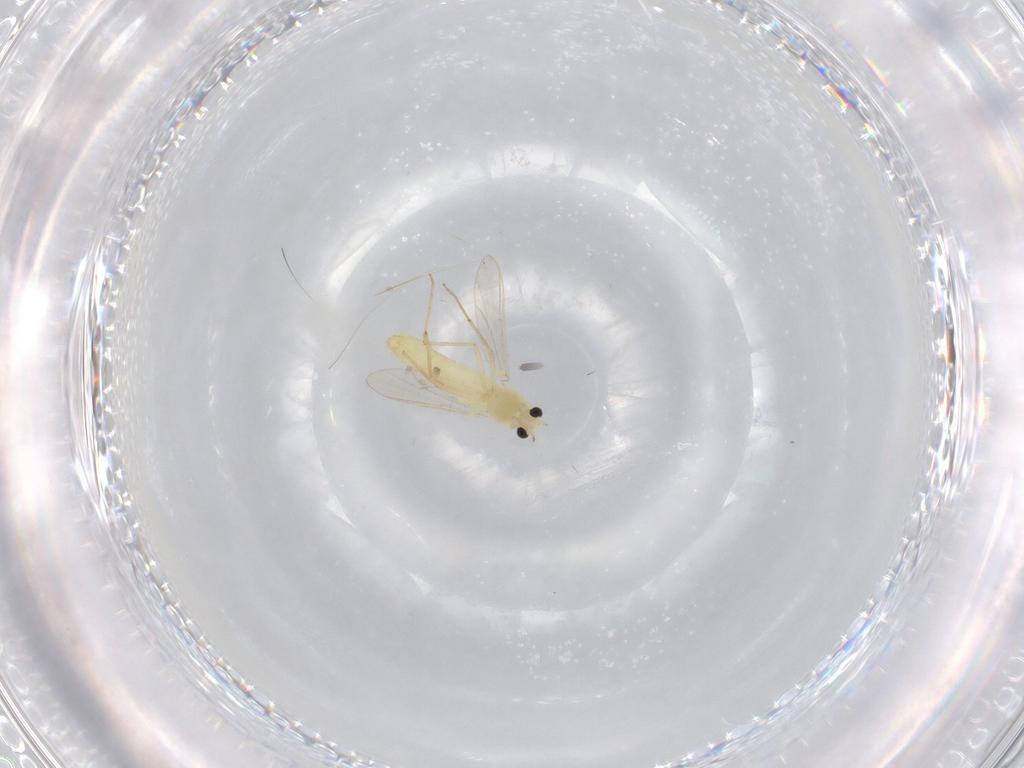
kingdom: Animalia
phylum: Arthropoda
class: Insecta
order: Diptera
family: Chironomidae
